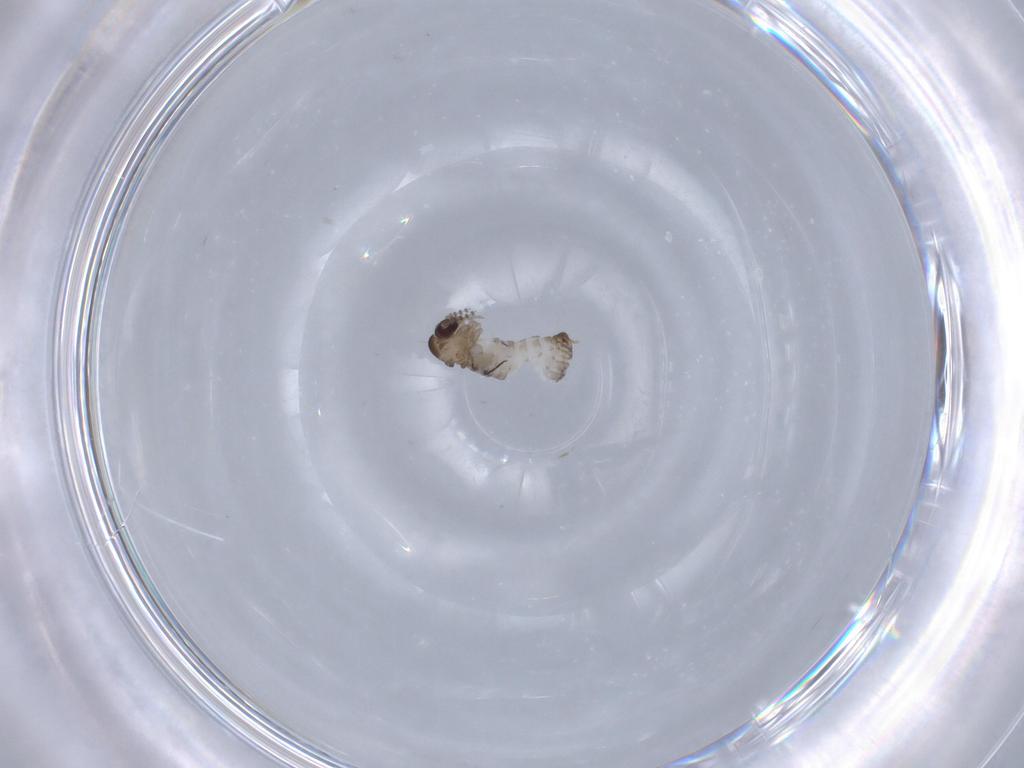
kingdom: Animalia
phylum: Arthropoda
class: Insecta
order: Diptera
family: Psychodidae
